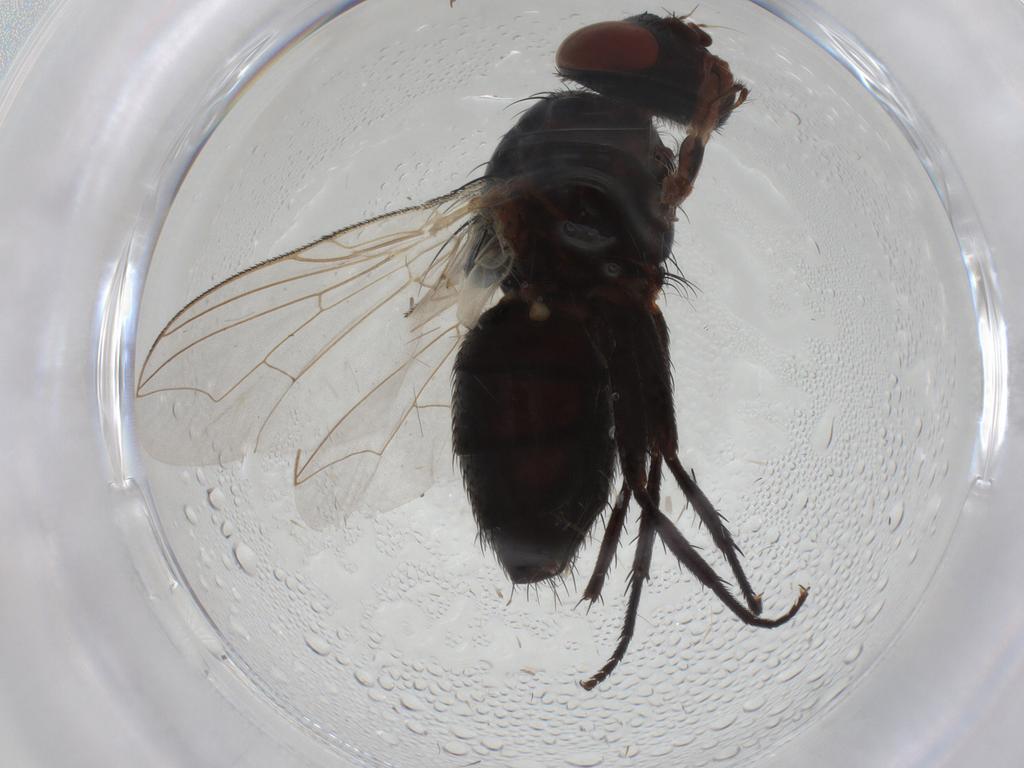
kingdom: Animalia
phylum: Arthropoda
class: Insecta
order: Diptera
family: Sarcophagidae
